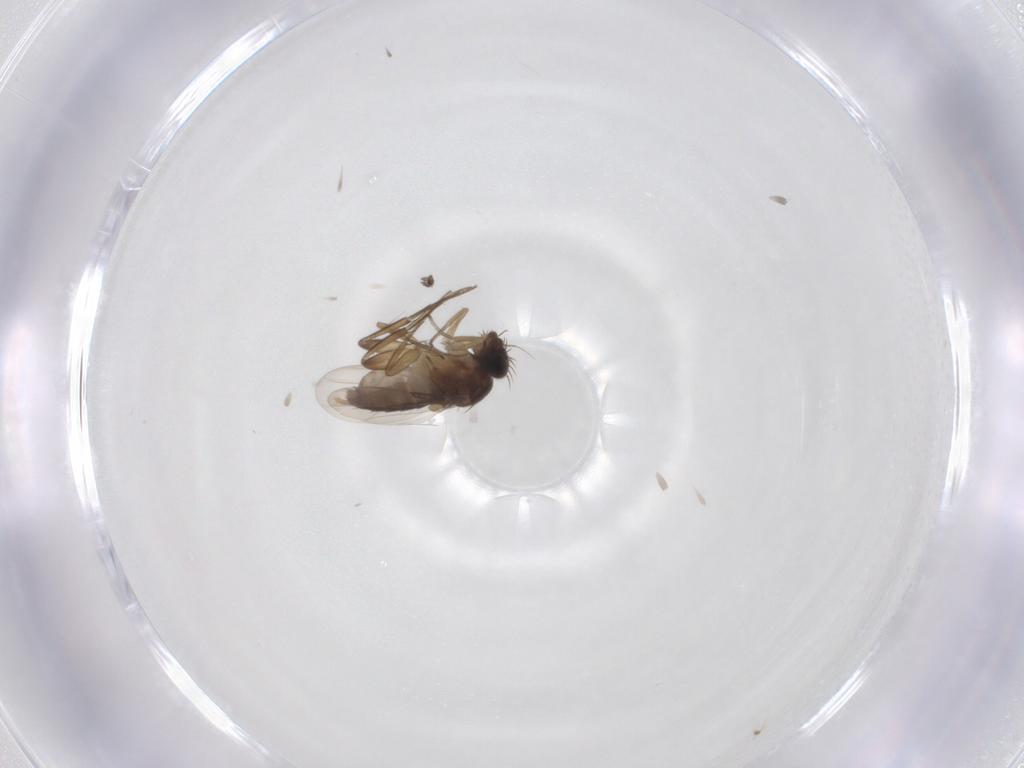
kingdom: Animalia
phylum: Arthropoda
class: Insecta
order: Diptera
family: Phoridae
